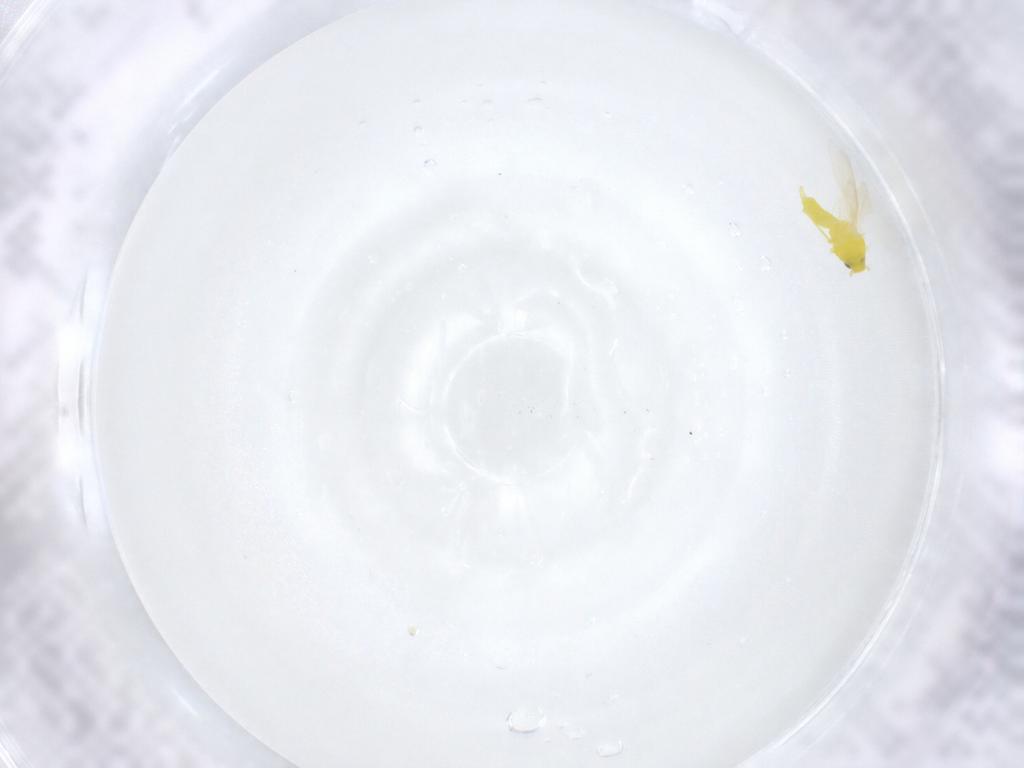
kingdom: Animalia
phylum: Arthropoda
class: Insecta
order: Hemiptera
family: Aleyrodidae
